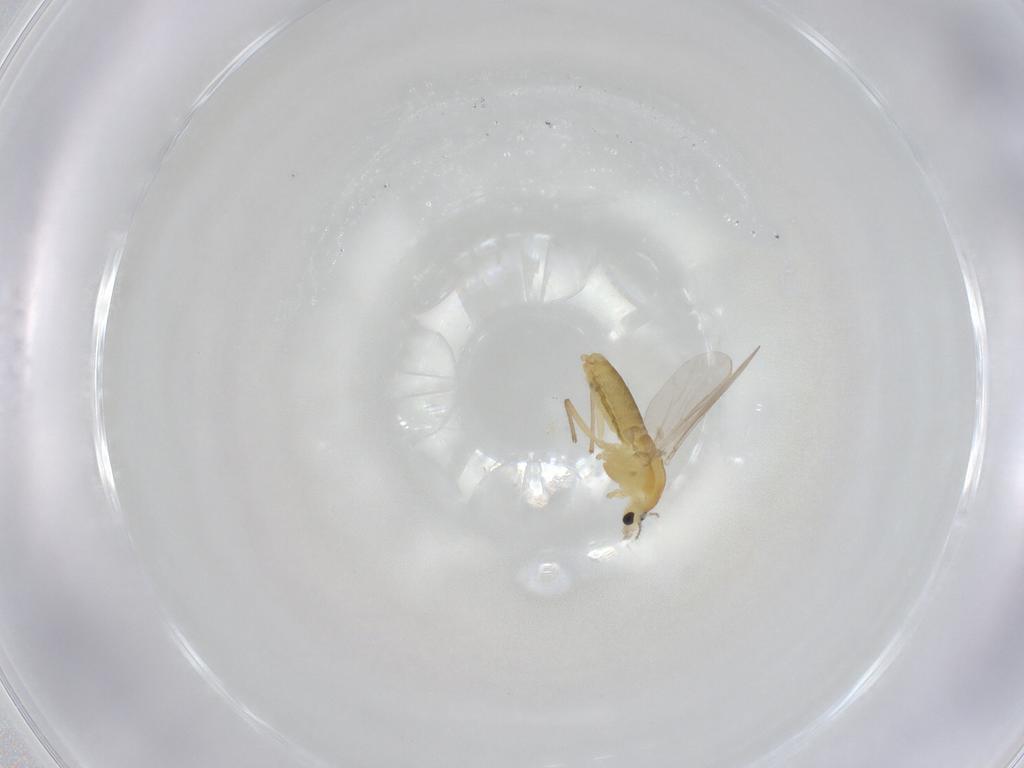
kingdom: Animalia
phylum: Arthropoda
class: Insecta
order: Diptera
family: Chironomidae
